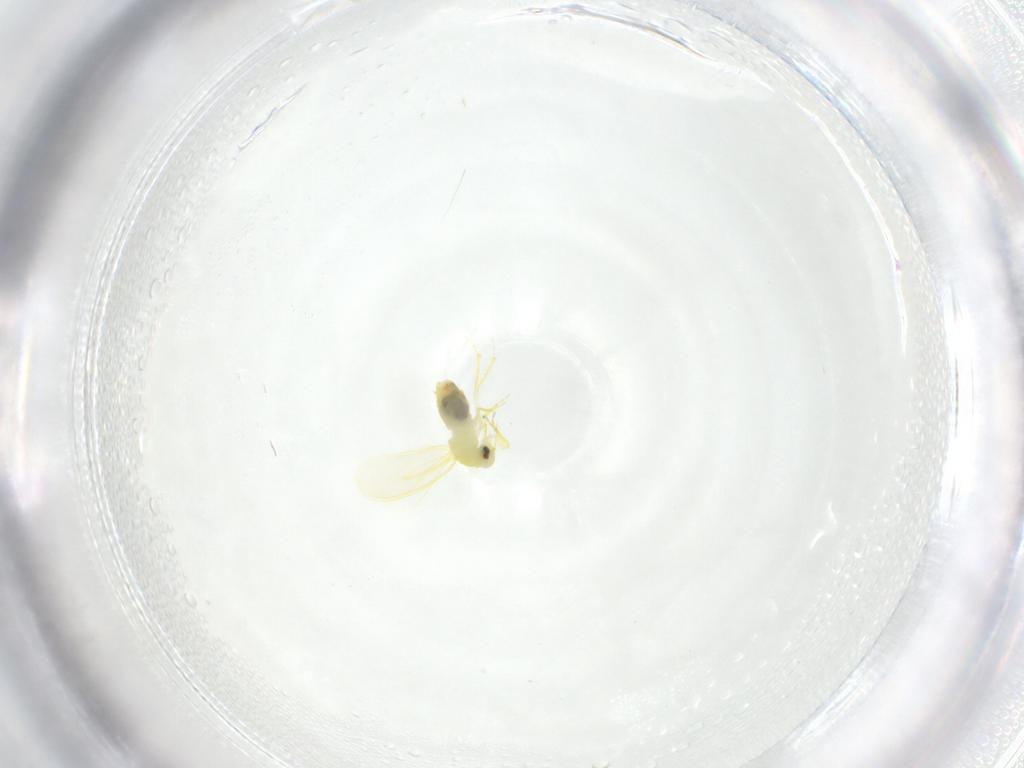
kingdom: Animalia
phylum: Arthropoda
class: Insecta
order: Hemiptera
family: Aleyrodidae
